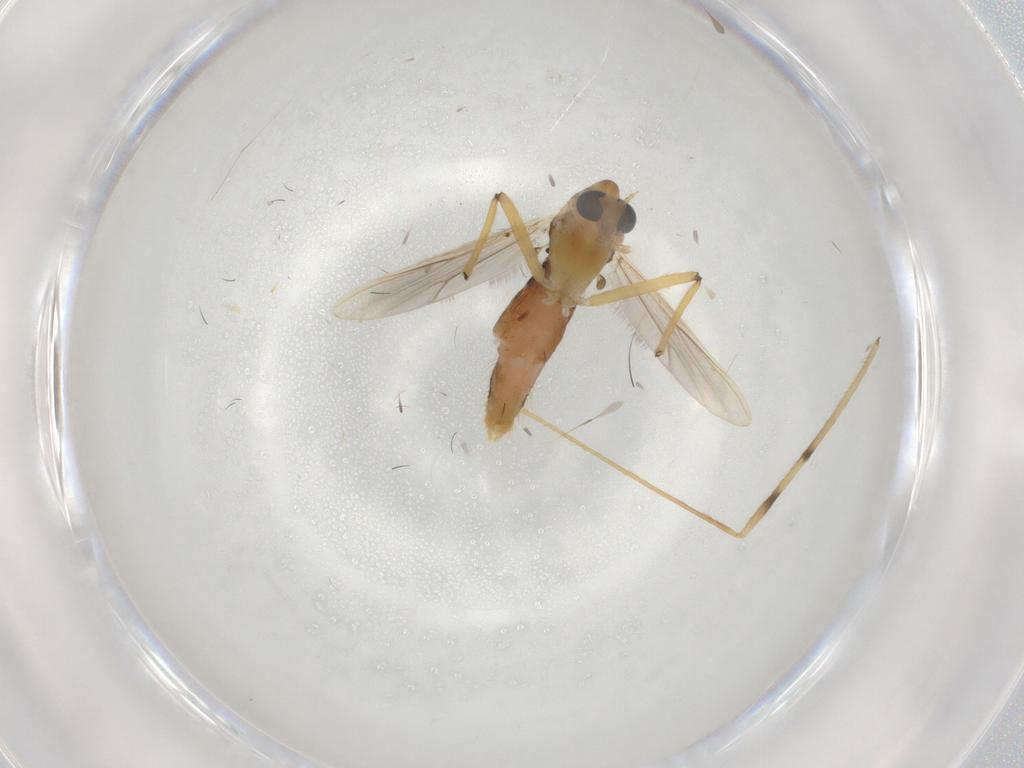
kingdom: Animalia
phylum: Arthropoda
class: Insecta
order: Diptera
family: Chironomidae
